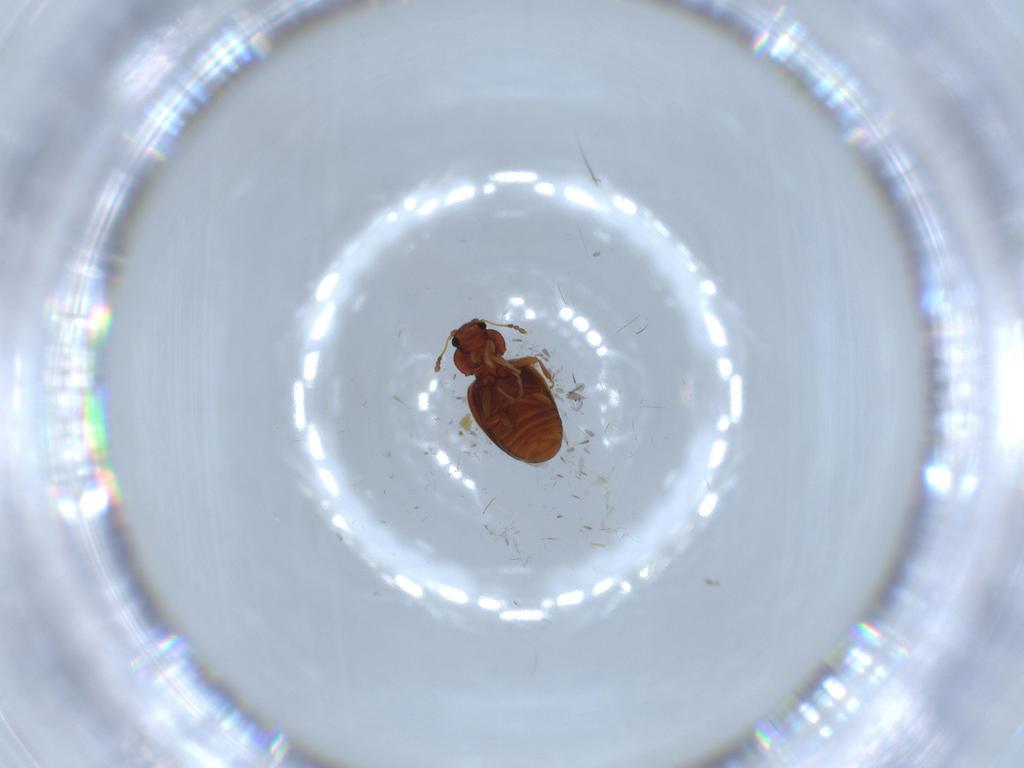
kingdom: Animalia
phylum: Arthropoda
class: Insecta
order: Coleoptera
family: Latridiidae
